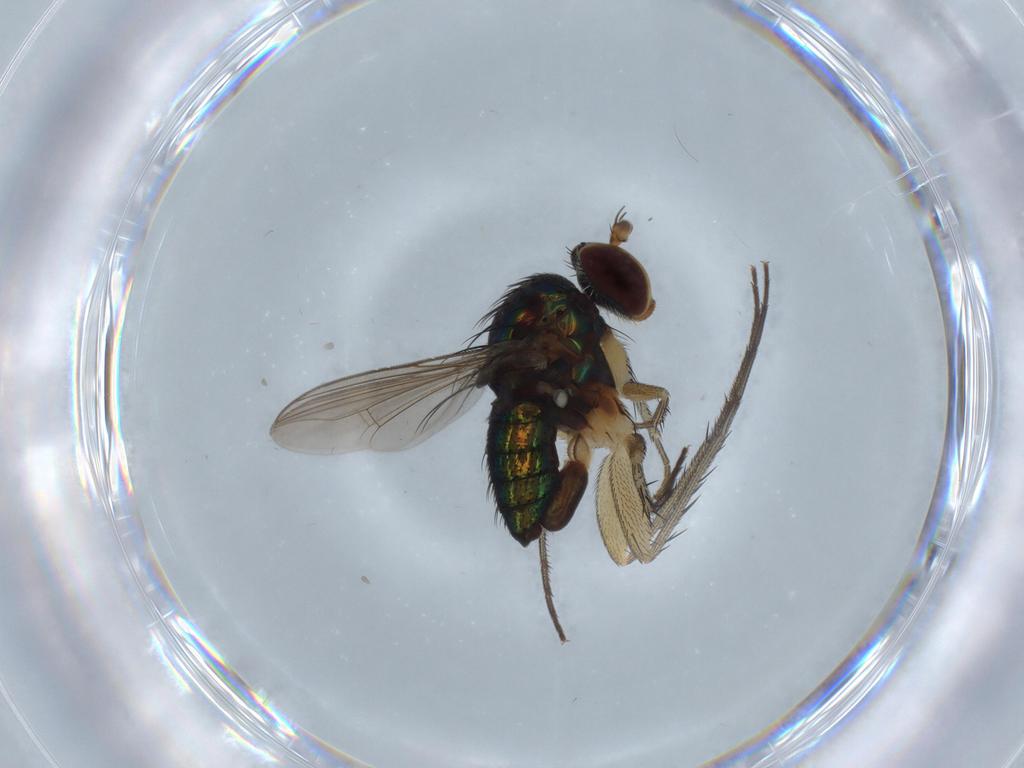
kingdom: Animalia
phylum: Arthropoda
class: Insecta
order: Diptera
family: Dolichopodidae
